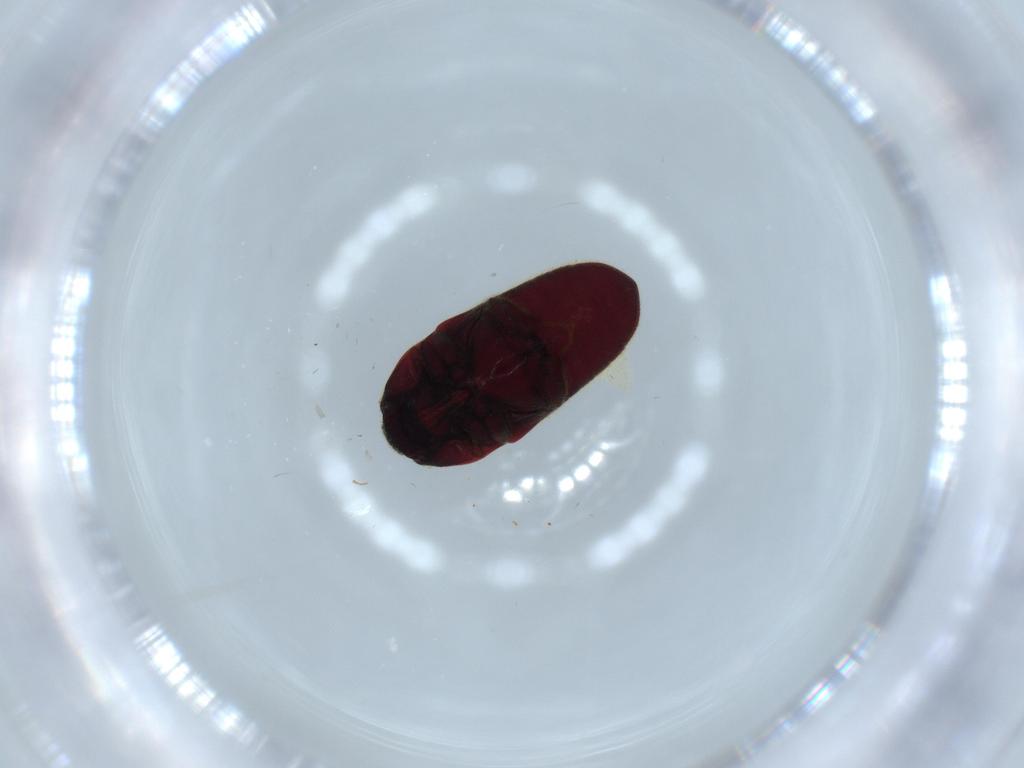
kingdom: Animalia
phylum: Arthropoda
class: Insecta
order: Coleoptera
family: Throscidae
